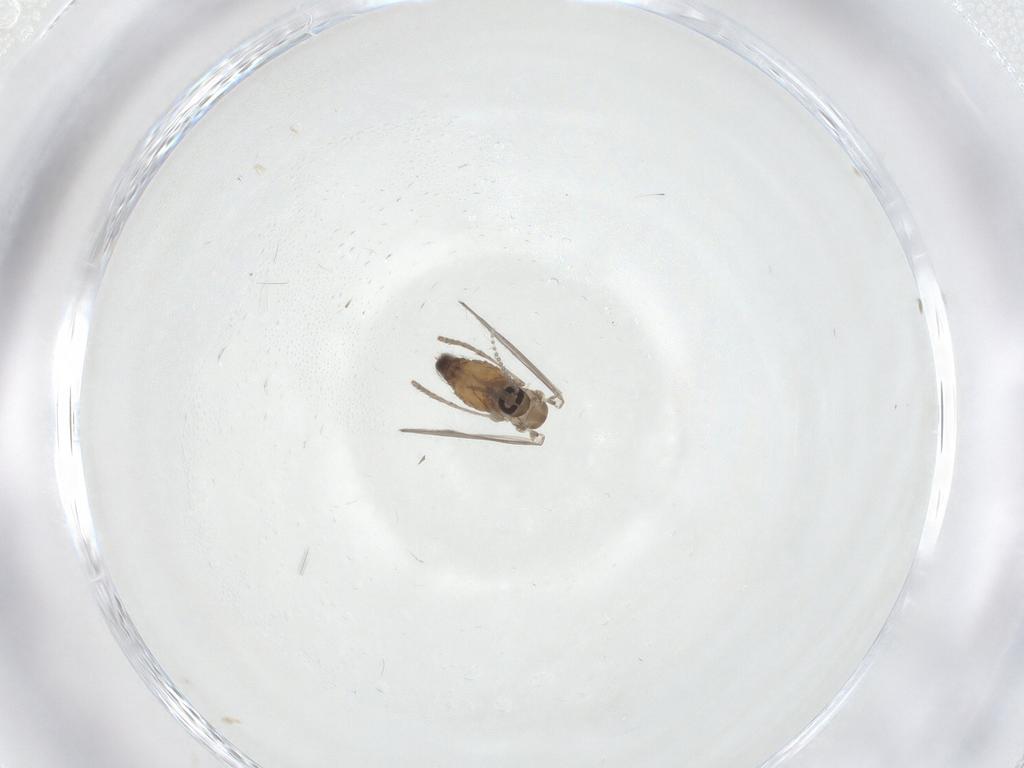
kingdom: Animalia
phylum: Arthropoda
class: Insecta
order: Diptera
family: Psychodidae
